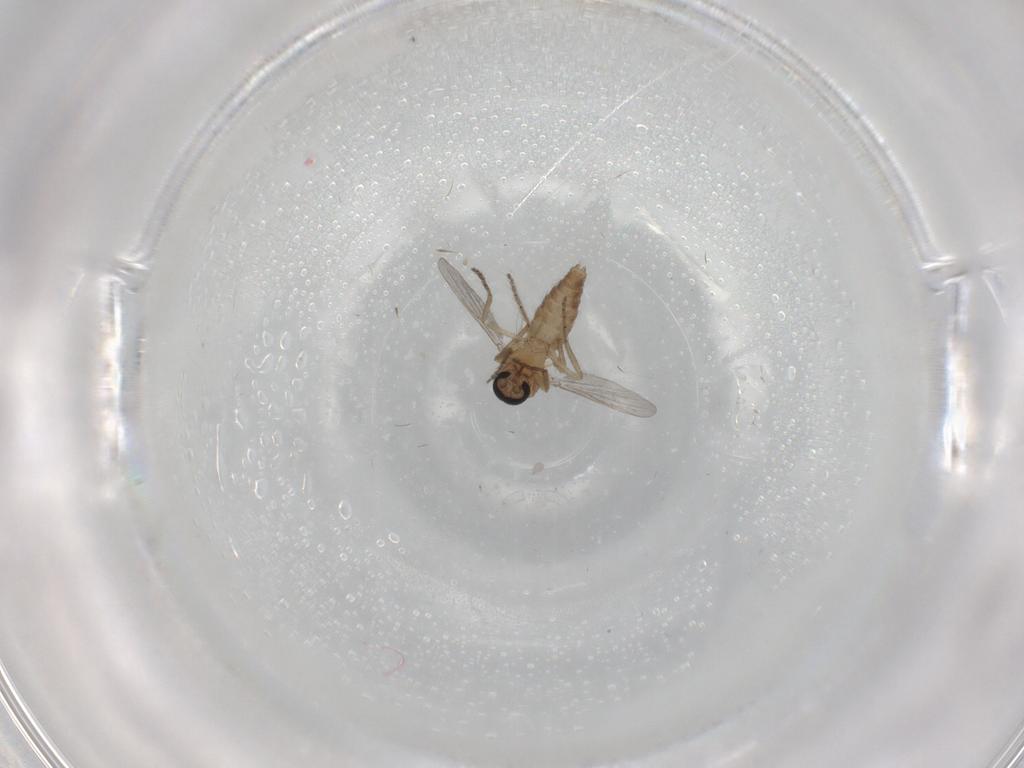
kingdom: Animalia
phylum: Arthropoda
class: Insecta
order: Diptera
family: Ceratopogonidae
